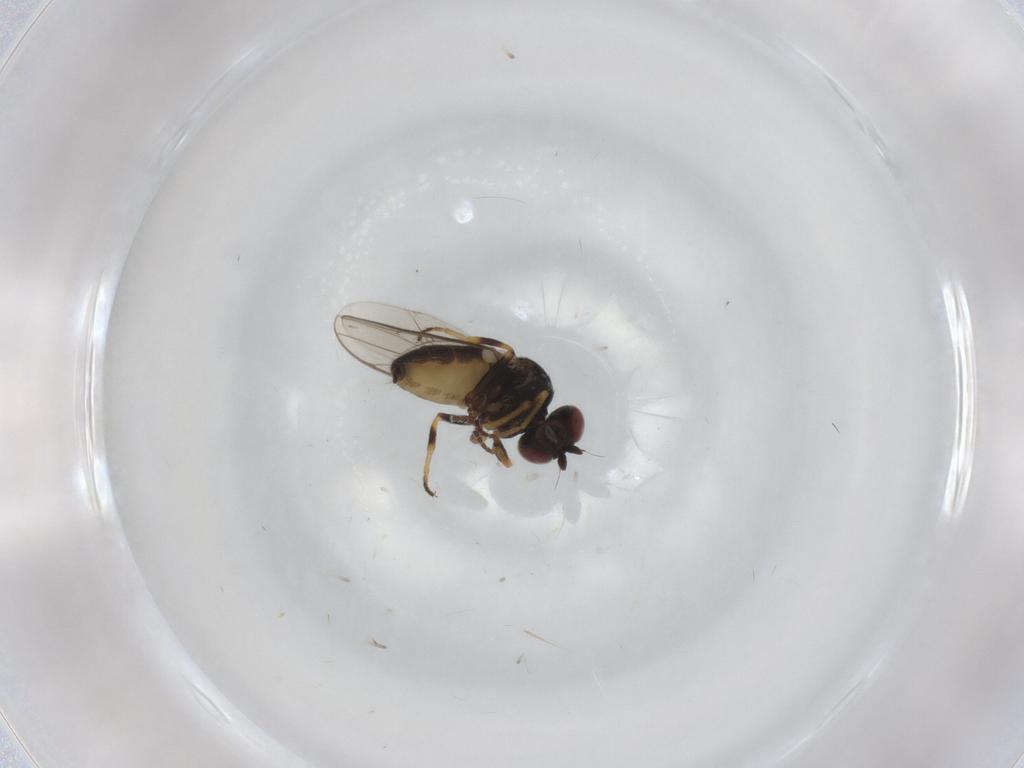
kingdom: Animalia
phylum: Arthropoda
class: Insecta
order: Diptera
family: Chloropidae
